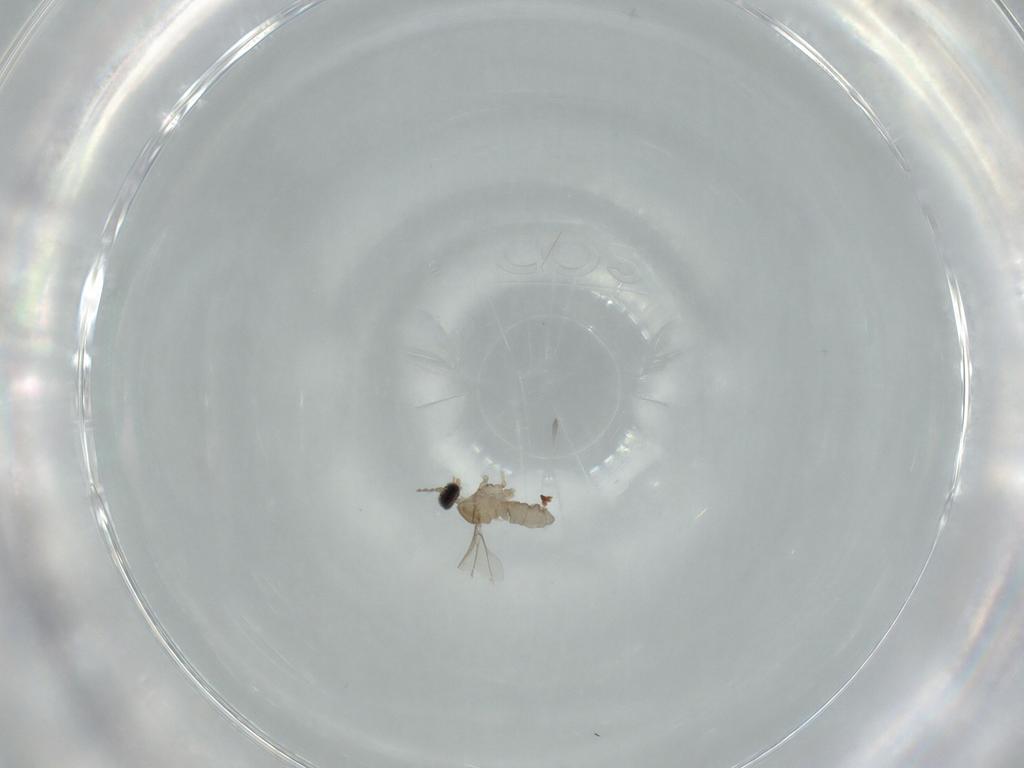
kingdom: Animalia
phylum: Arthropoda
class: Insecta
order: Diptera
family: Cecidomyiidae
